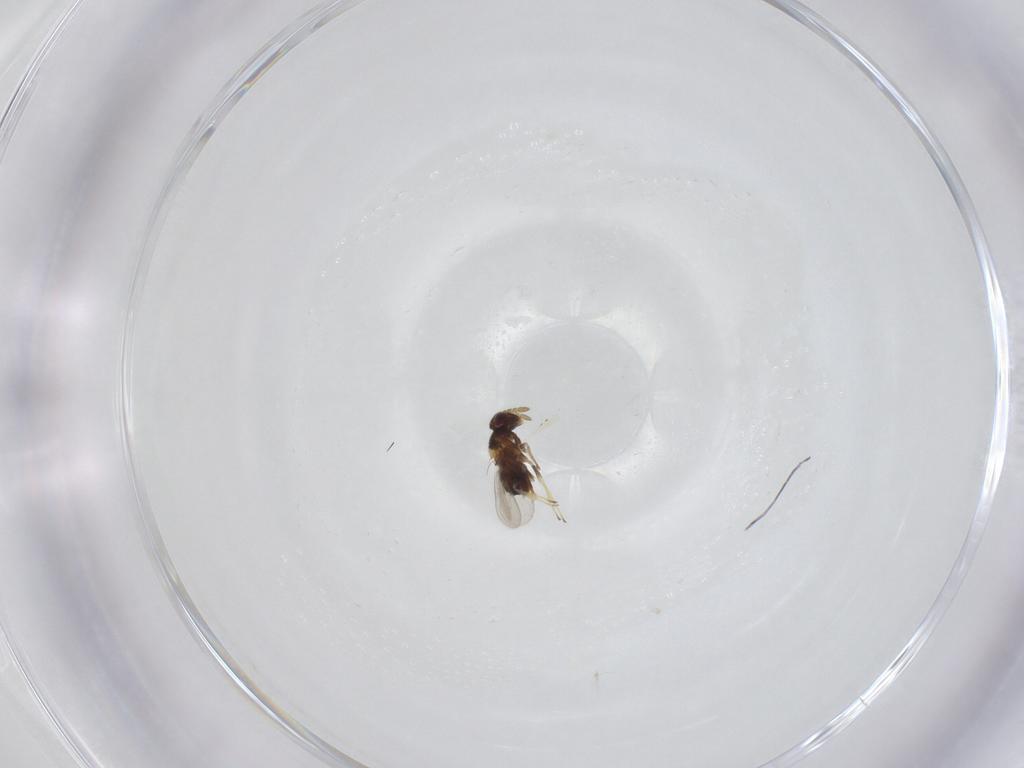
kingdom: Animalia
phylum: Arthropoda
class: Insecta
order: Hymenoptera
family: Aphelinidae
